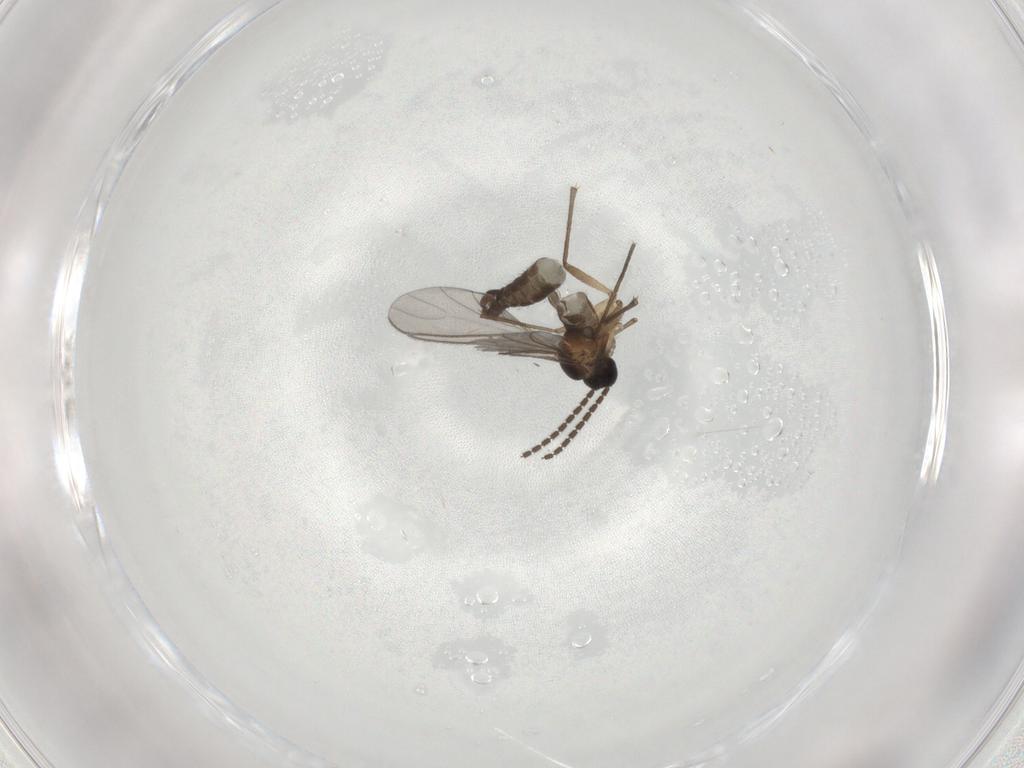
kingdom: Animalia
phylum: Arthropoda
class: Insecta
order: Diptera
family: Sciaridae
